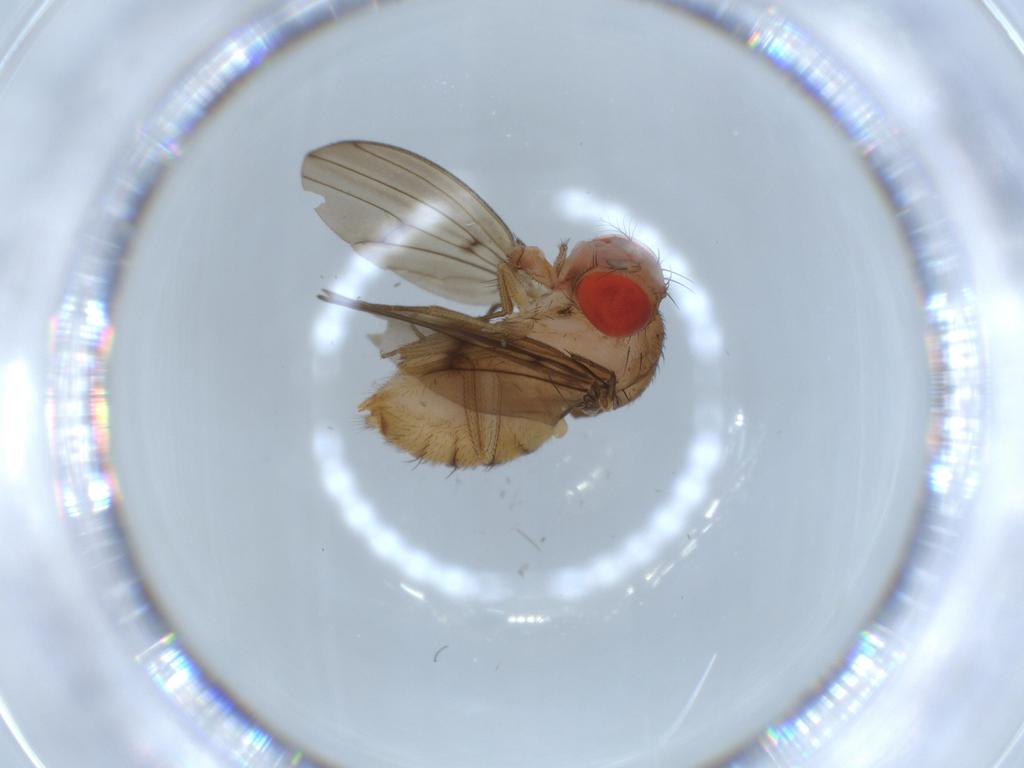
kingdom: Animalia
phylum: Arthropoda
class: Insecta
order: Diptera
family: Drosophilidae
